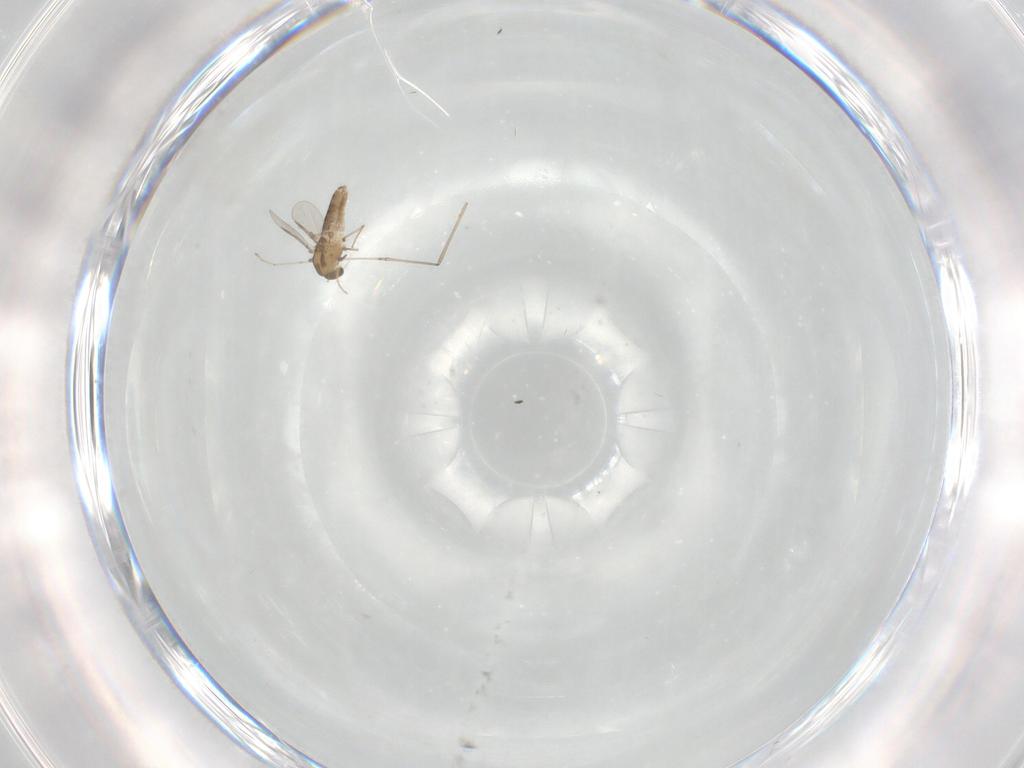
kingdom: Animalia
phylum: Arthropoda
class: Insecta
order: Diptera
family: Chironomidae
